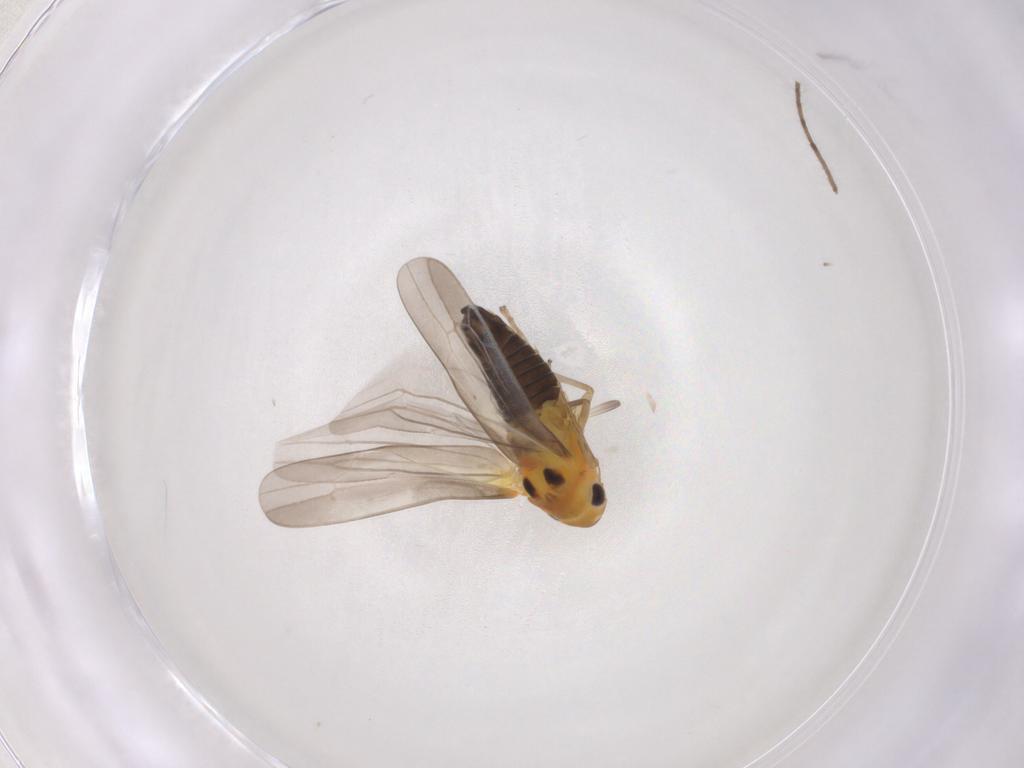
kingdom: Animalia
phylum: Arthropoda
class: Insecta
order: Hemiptera
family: Cicadellidae
